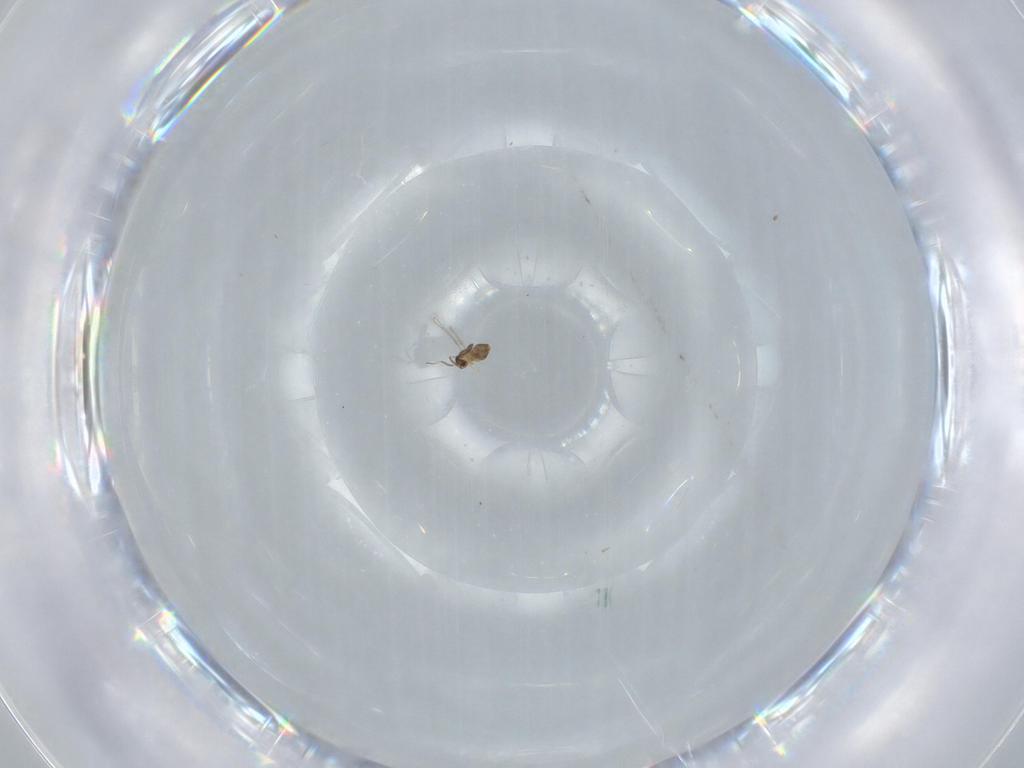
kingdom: Animalia
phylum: Arthropoda
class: Insecta
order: Hymenoptera
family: Mymaridae
